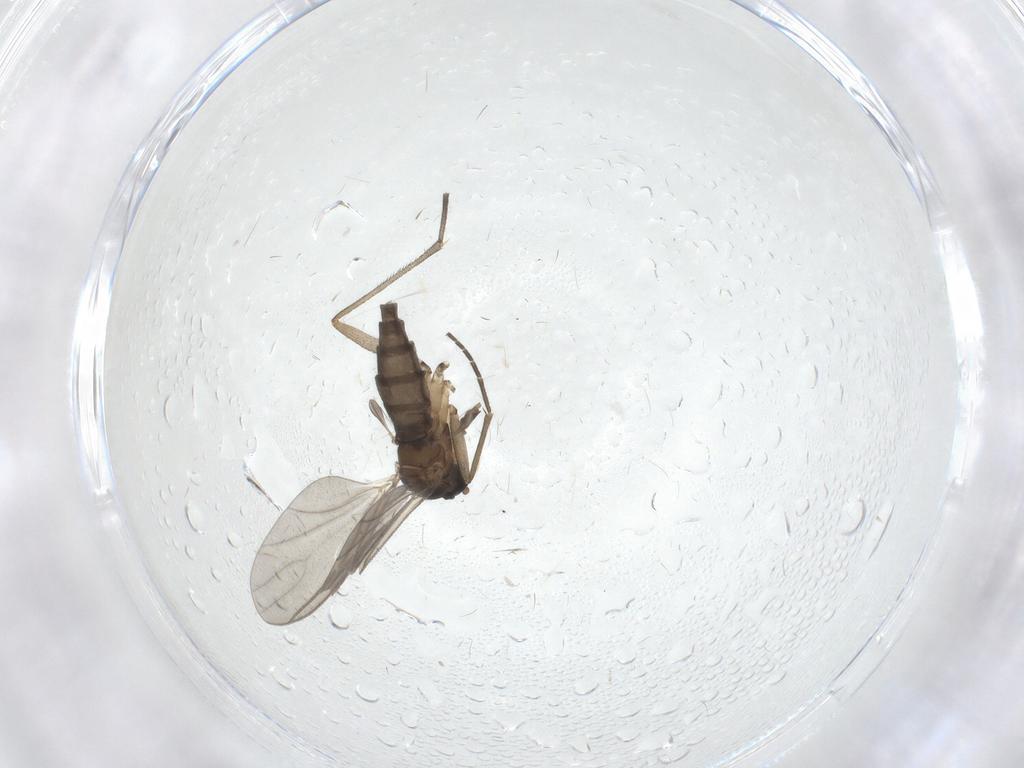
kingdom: Animalia
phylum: Arthropoda
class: Insecta
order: Diptera
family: Sciaridae
